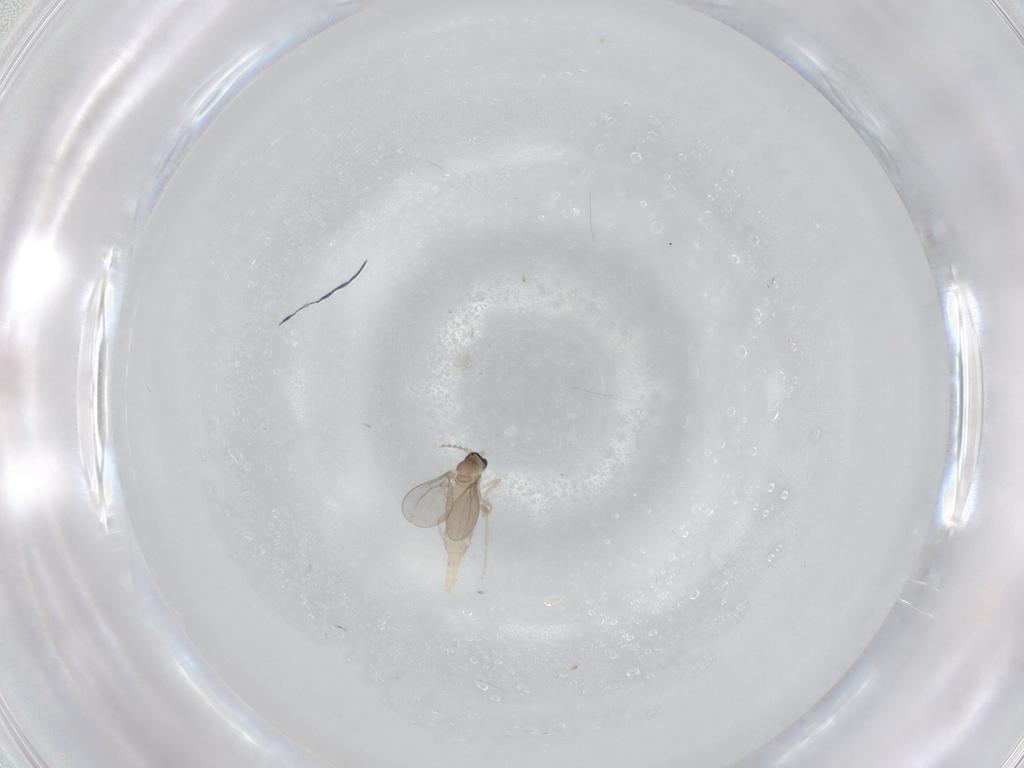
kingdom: Animalia
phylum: Arthropoda
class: Insecta
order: Diptera
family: Cecidomyiidae
